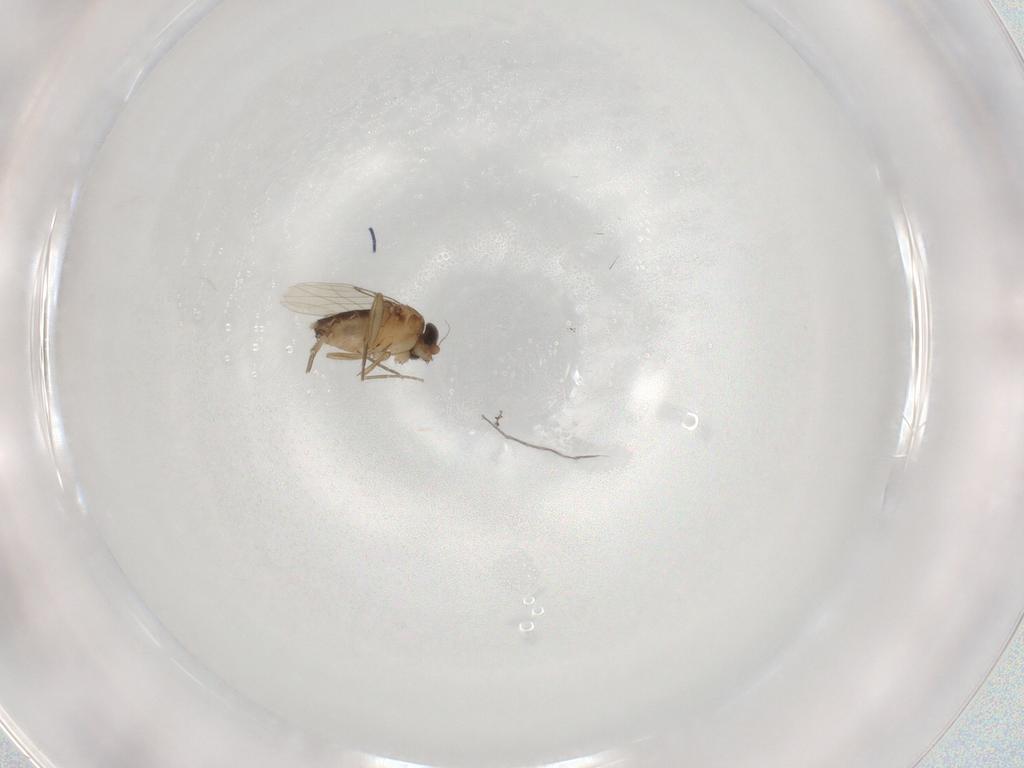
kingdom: Animalia
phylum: Arthropoda
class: Insecta
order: Diptera
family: Phoridae
